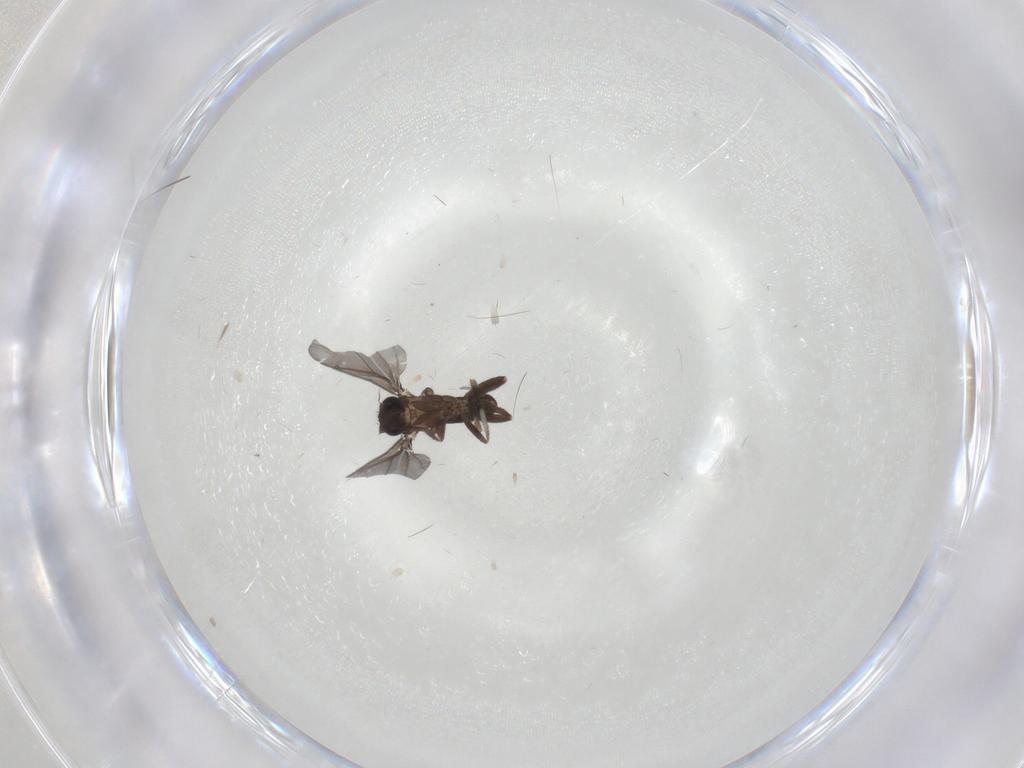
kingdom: Animalia
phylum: Arthropoda
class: Insecta
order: Diptera
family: Phoridae
